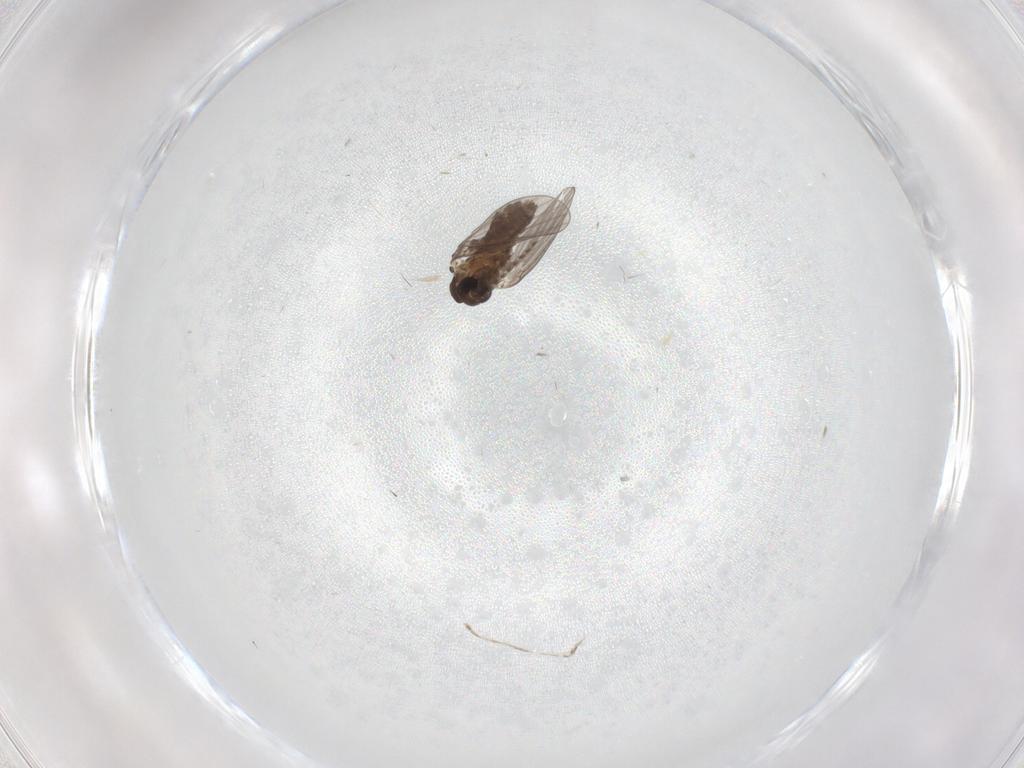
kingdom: Animalia
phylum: Arthropoda
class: Insecta
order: Diptera
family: Cecidomyiidae
